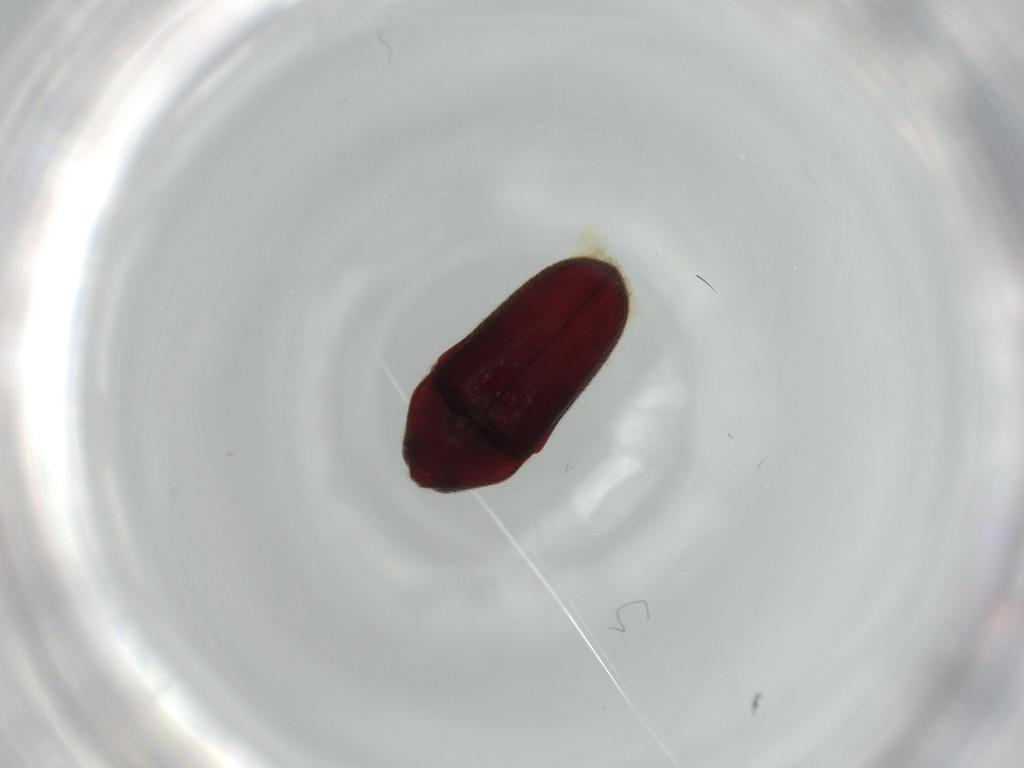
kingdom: Animalia
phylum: Arthropoda
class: Insecta
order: Coleoptera
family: Throscidae
